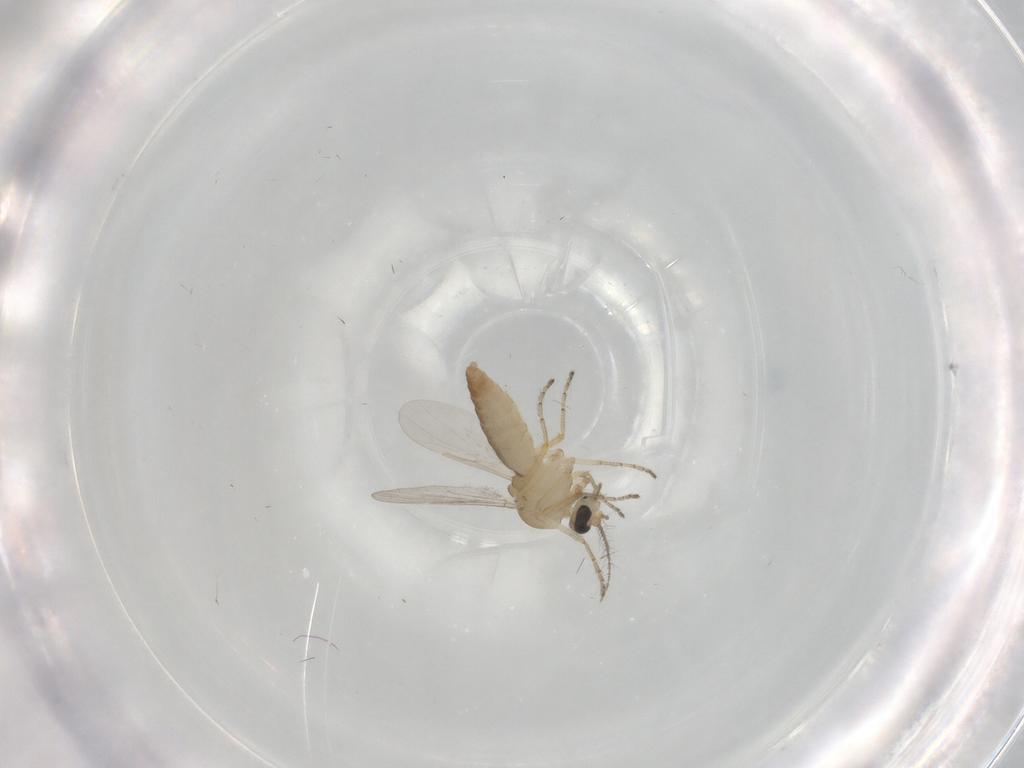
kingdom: Animalia
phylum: Arthropoda
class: Insecta
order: Diptera
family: Ceratopogonidae
